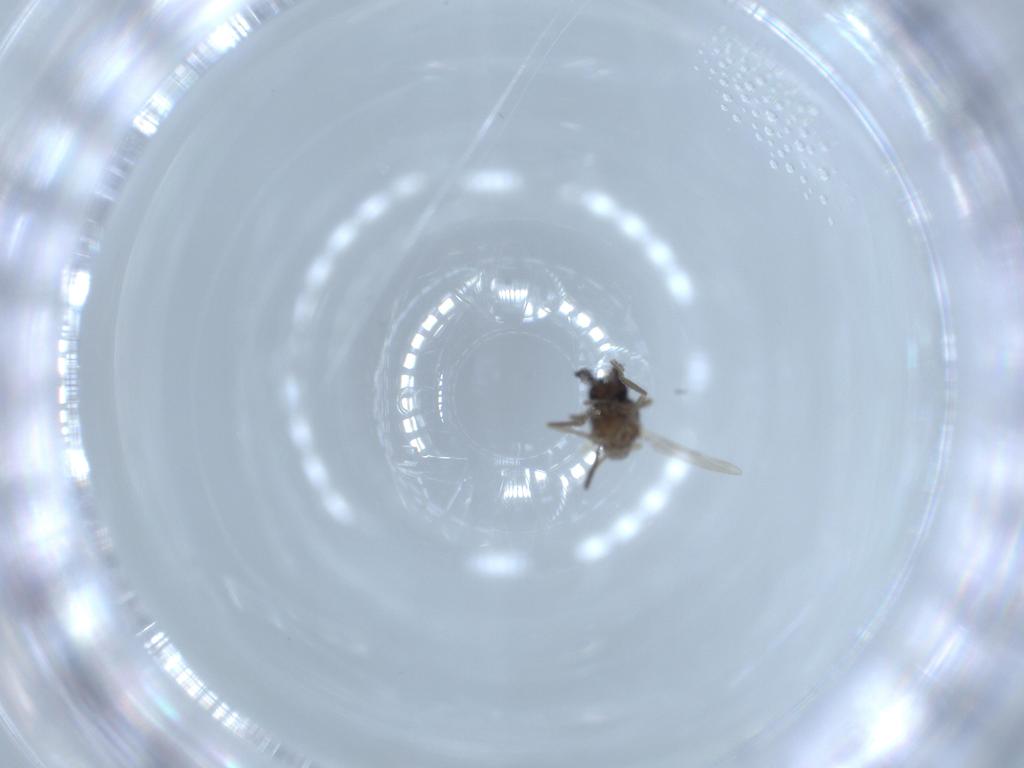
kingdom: Animalia
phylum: Arthropoda
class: Insecta
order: Diptera
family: Ceratopogonidae
